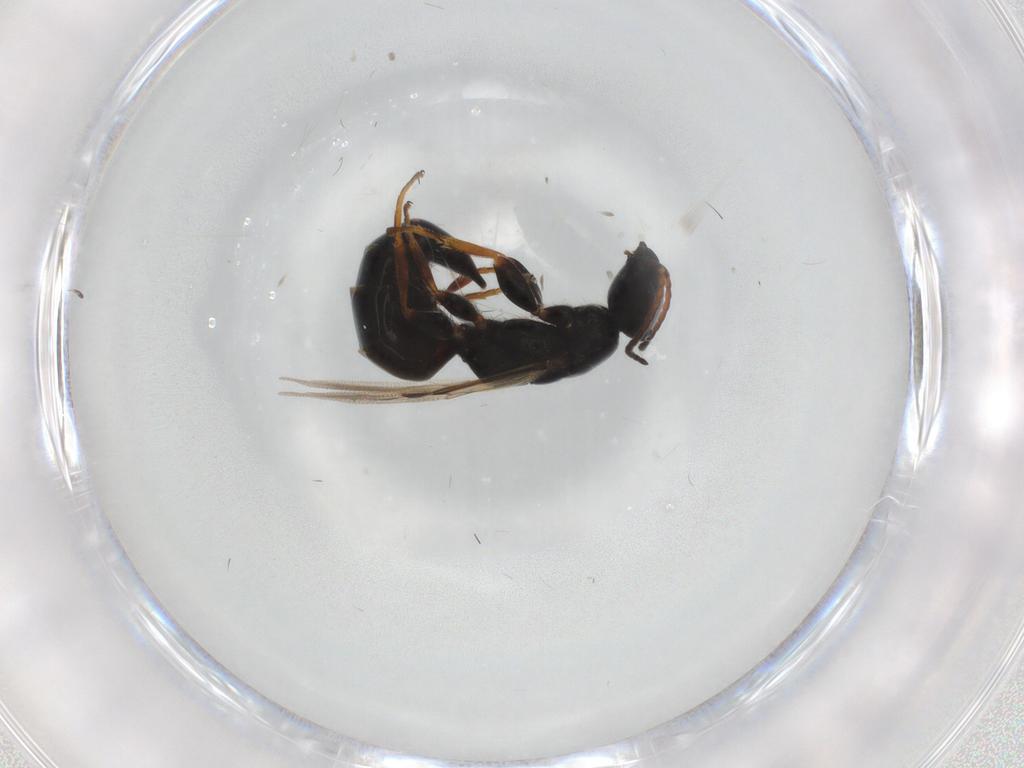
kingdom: Animalia
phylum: Arthropoda
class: Insecta
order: Hymenoptera
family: Bethylidae
